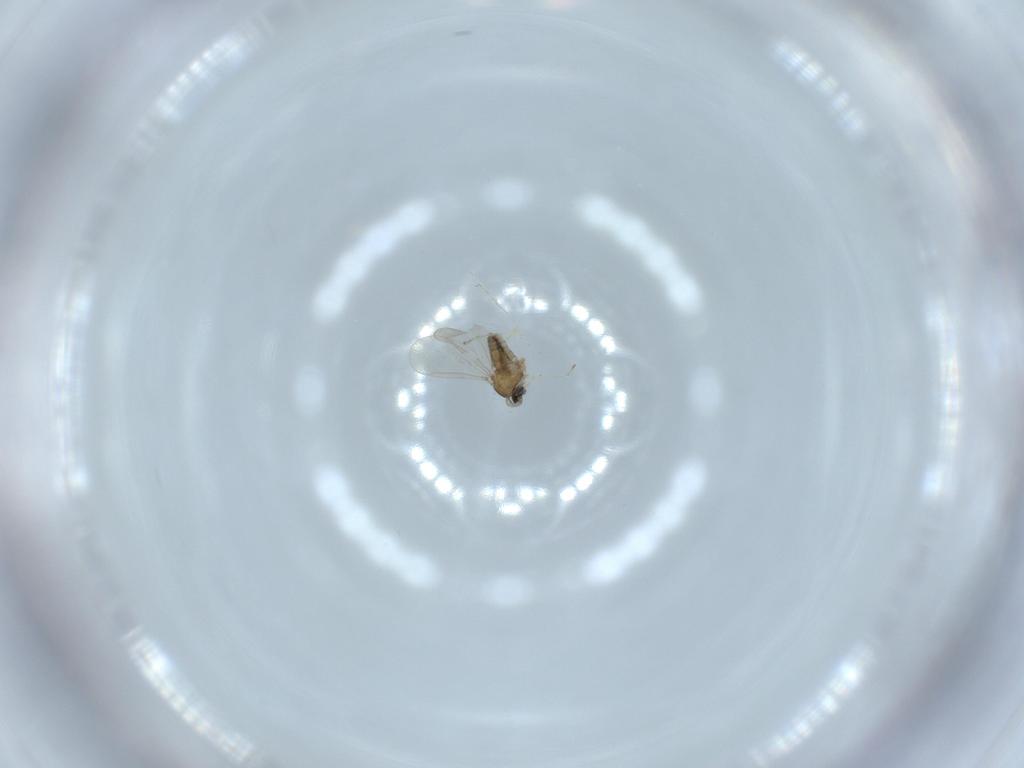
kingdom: Animalia
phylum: Arthropoda
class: Insecta
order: Diptera
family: Cecidomyiidae
